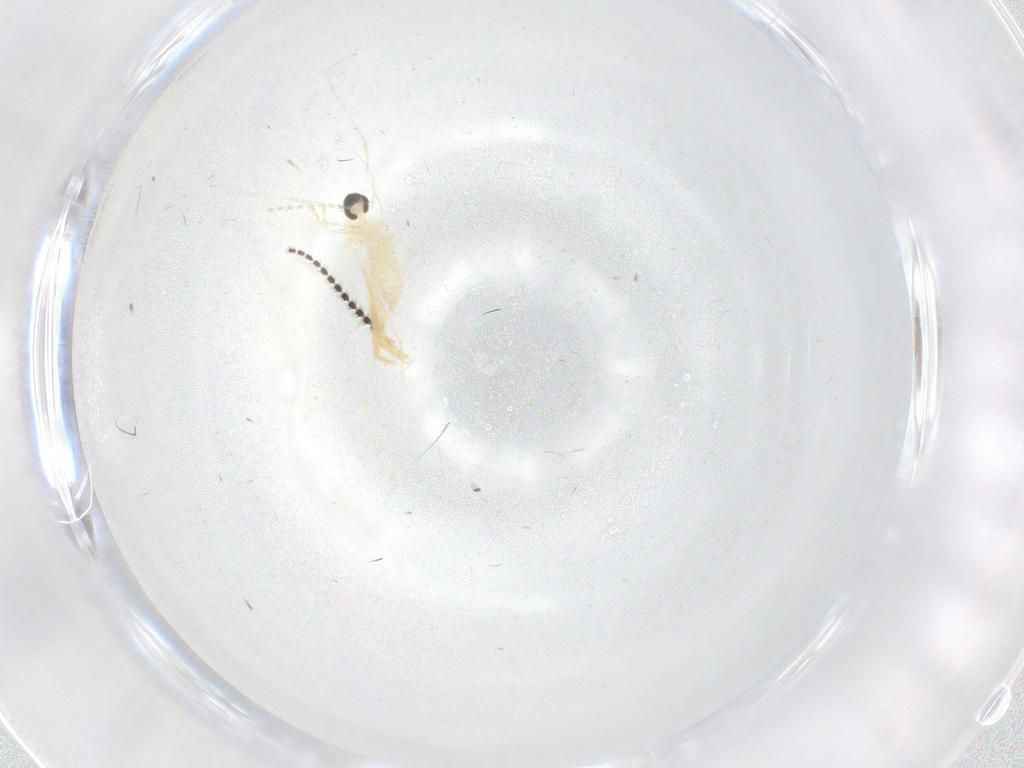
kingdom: Animalia
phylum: Arthropoda
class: Insecta
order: Diptera
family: Cecidomyiidae
